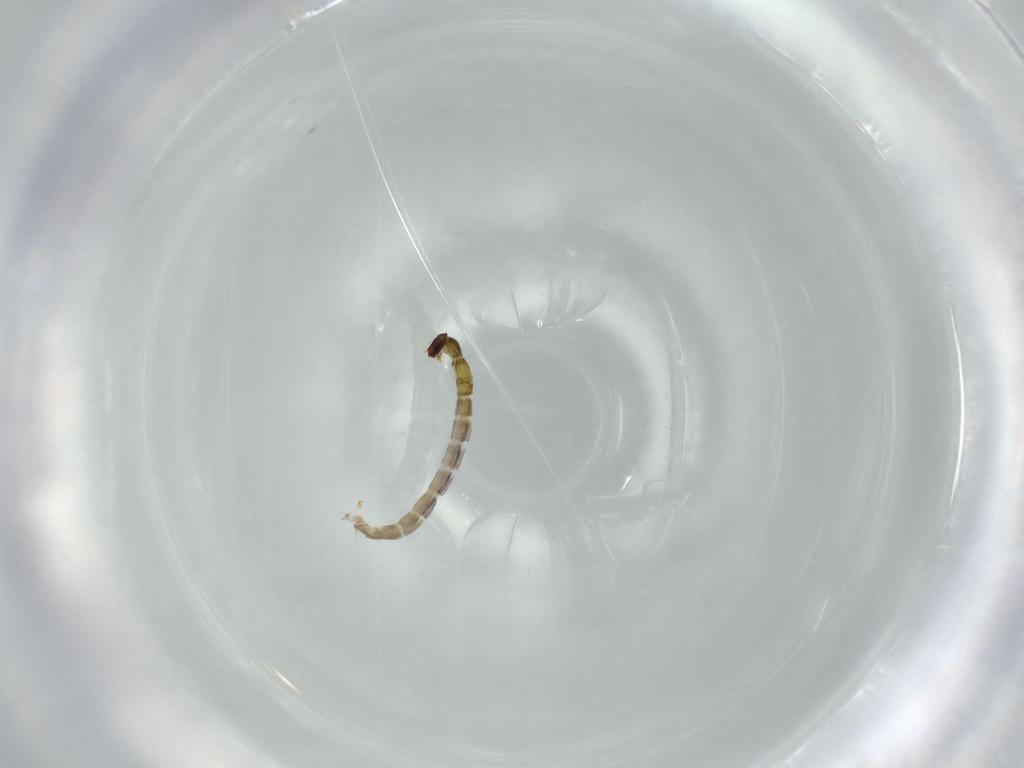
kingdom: Animalia
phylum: Arthropoda
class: Insecta
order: Diptera
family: Chironomidae
